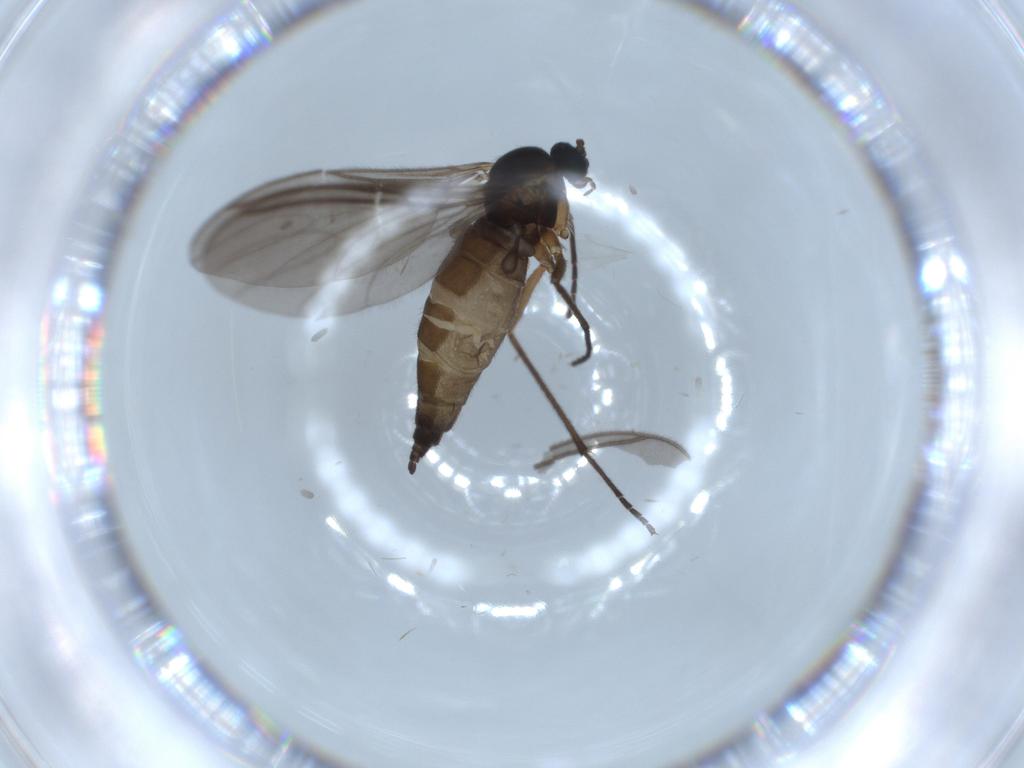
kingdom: Animalia
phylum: Arthropoda
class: Insecta
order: Diptera
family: Sciaridae
